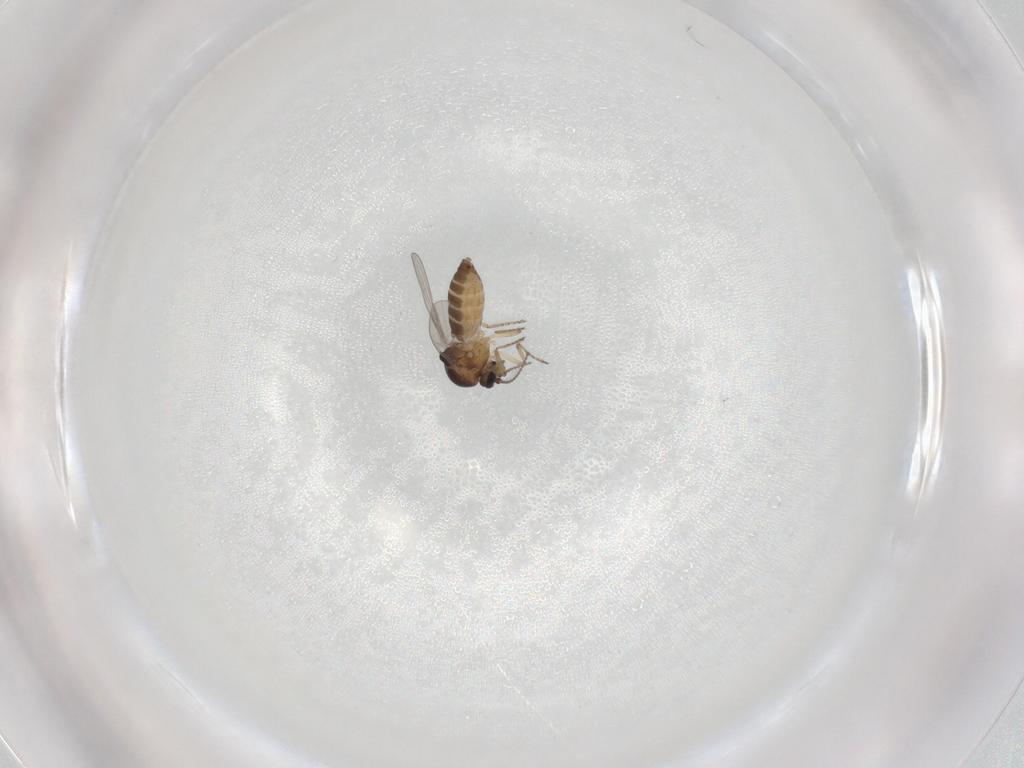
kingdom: Animalia
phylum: Arthropoda
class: Insecta
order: Diptera
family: Ceratopogonidae
